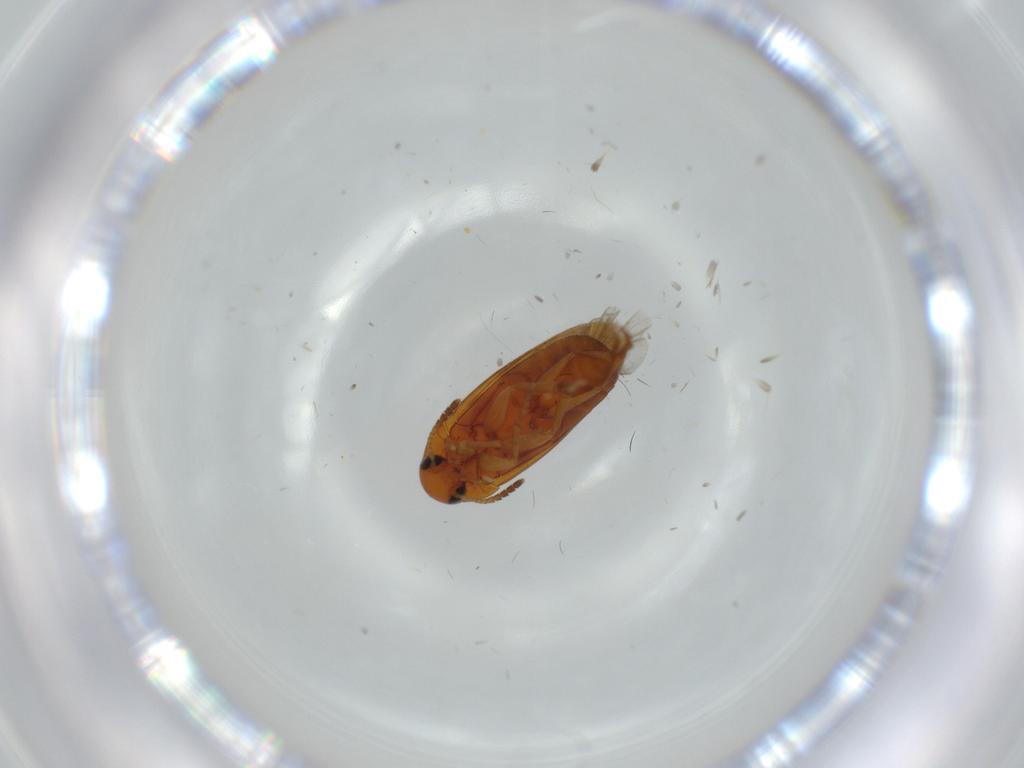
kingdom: Animalia
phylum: Arthropoda
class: Insecta
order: Coleoptera
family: Scraptiidae
